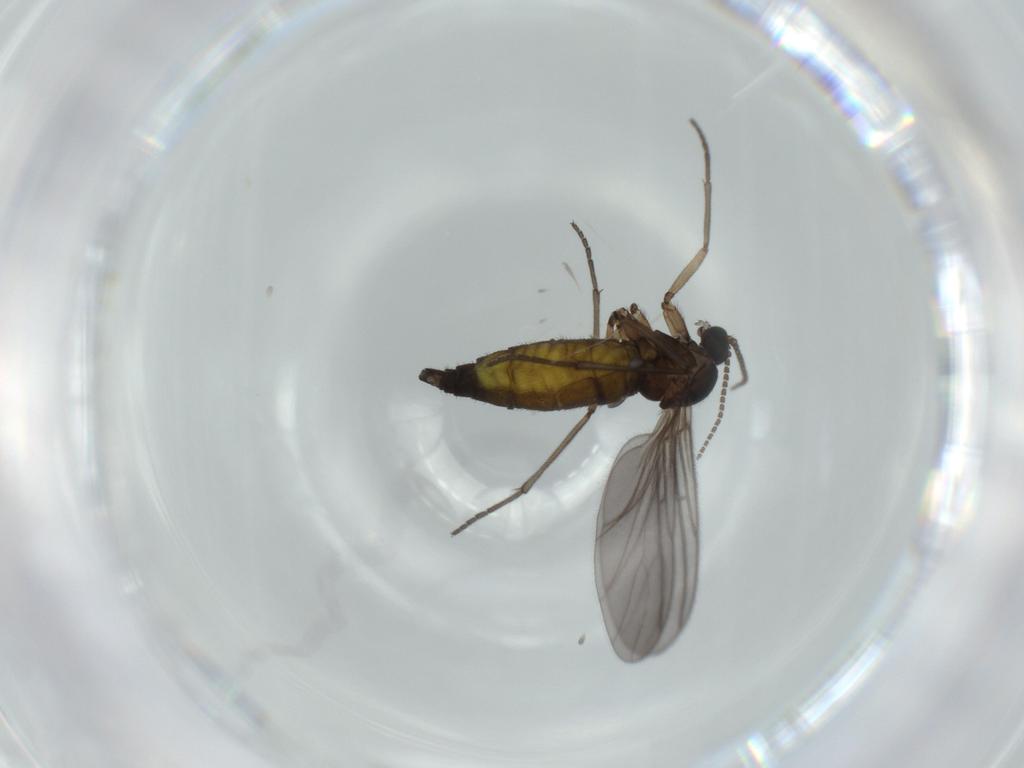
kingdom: Animalia
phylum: Arthropoda
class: Insecta
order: Diptera
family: Sciaridae
